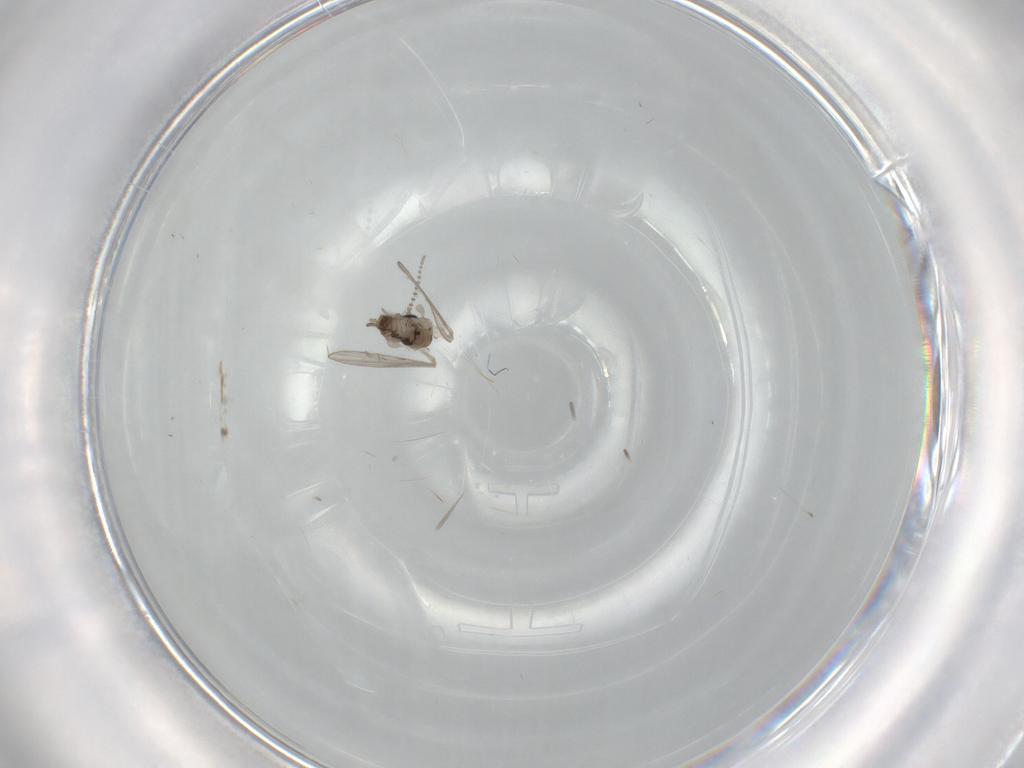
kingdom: Animalia
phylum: Arthropoda
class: Insecta
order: Diptera
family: Psychodidae
